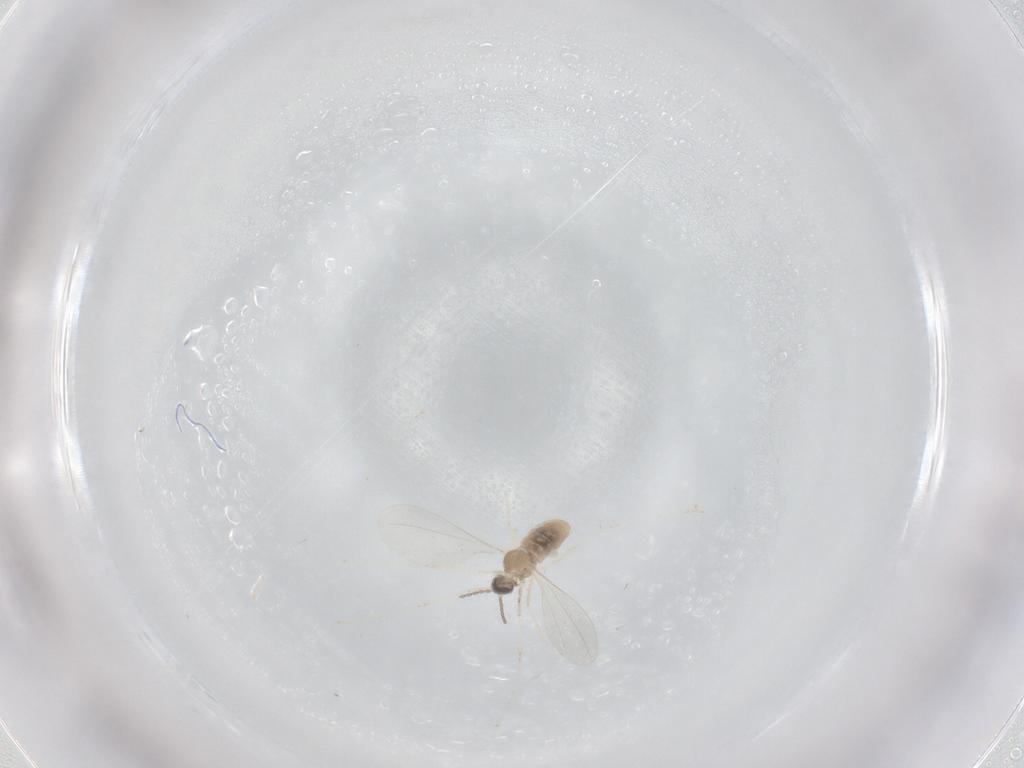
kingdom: Animalia
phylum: Arthropoda
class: Insecta
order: Diptera
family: Cecidomyiidae
